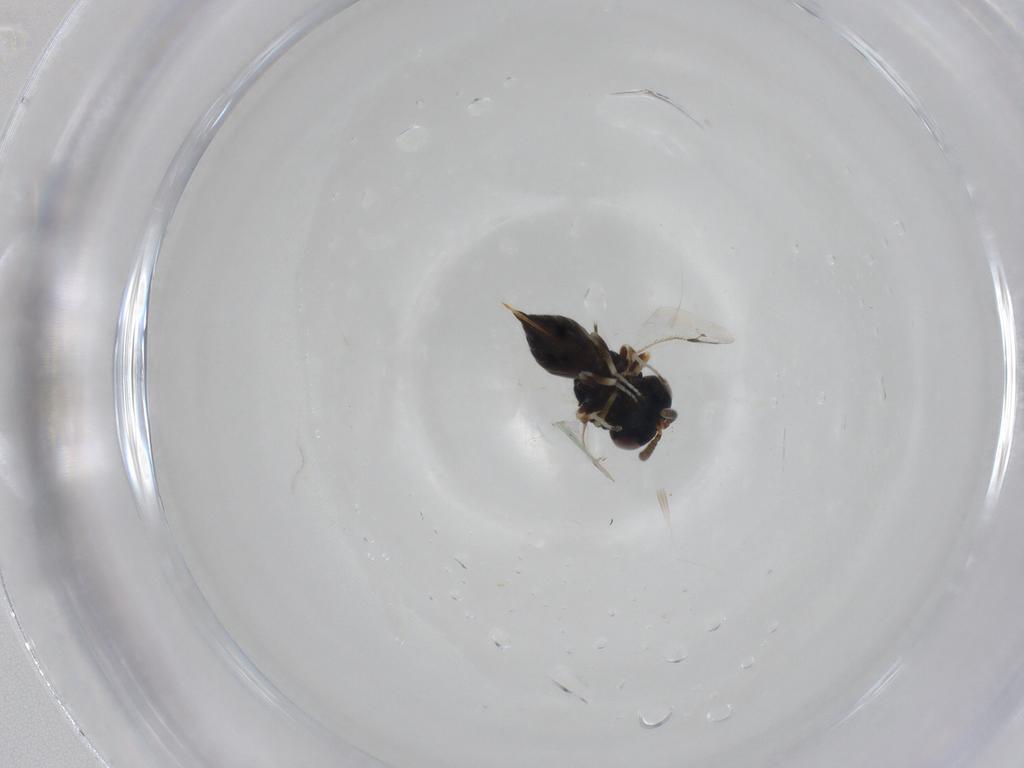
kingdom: Animalia
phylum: Arthropoda
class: Insecta
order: Hymenoptera
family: Pteromalidae
